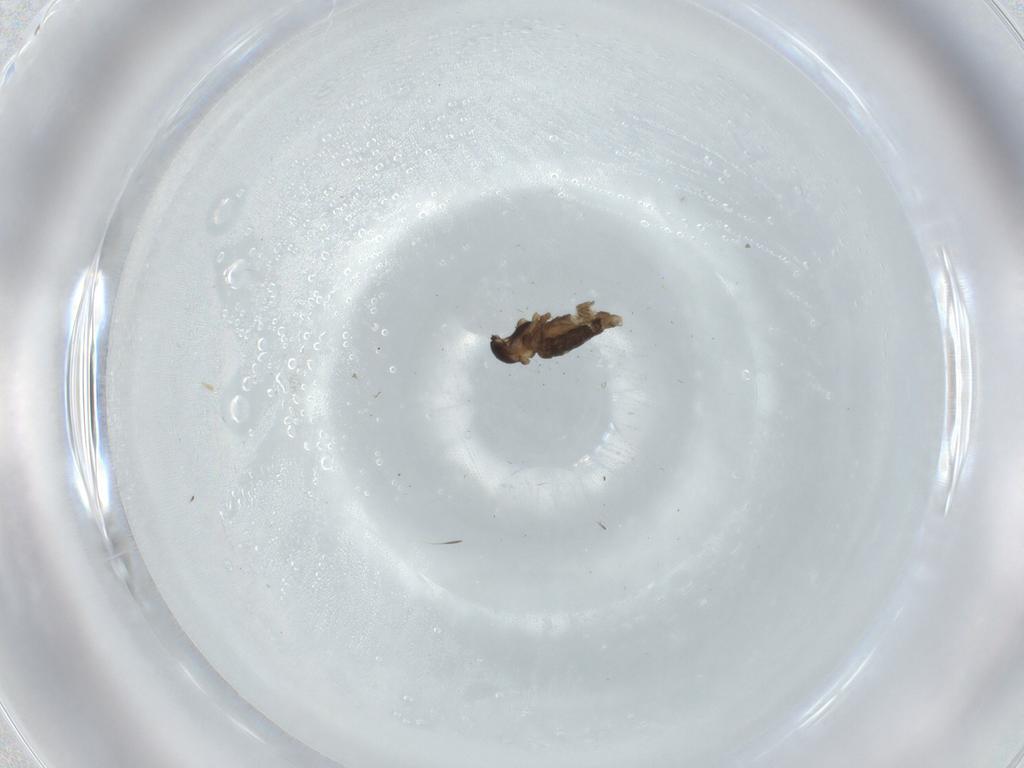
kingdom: Animalia
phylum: Arthropoda
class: Insecta
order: Diptera
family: Cecidomyiidae
